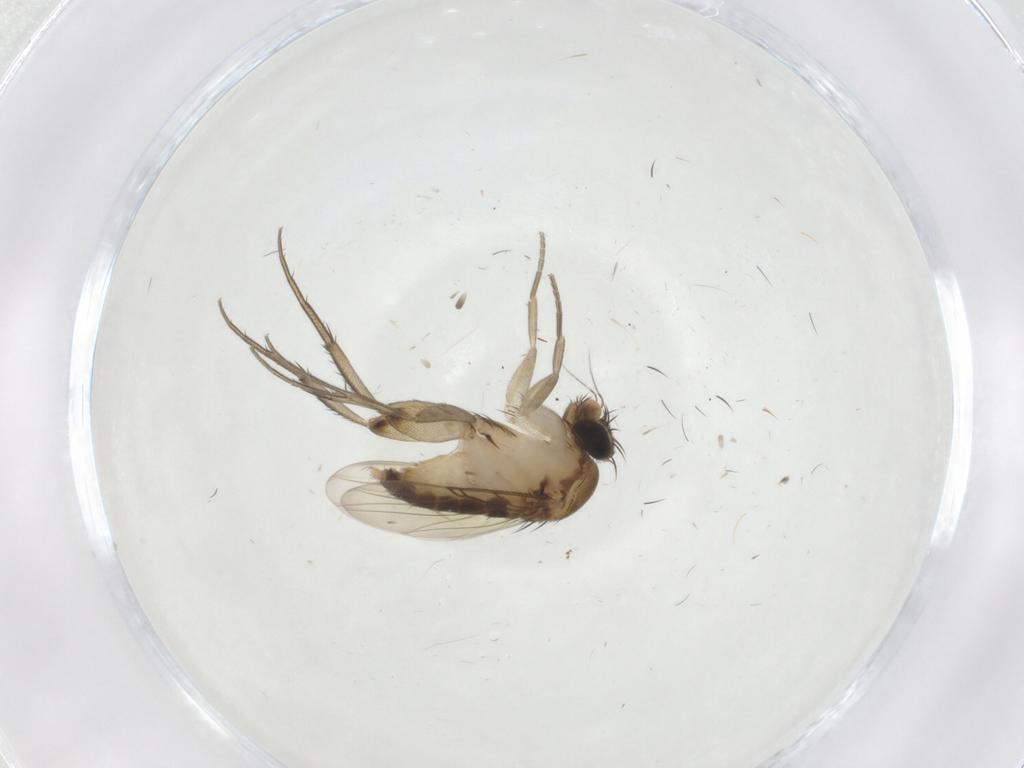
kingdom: Animalia
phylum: Arthropoda
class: Insecta
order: Diptera
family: Phoridae
